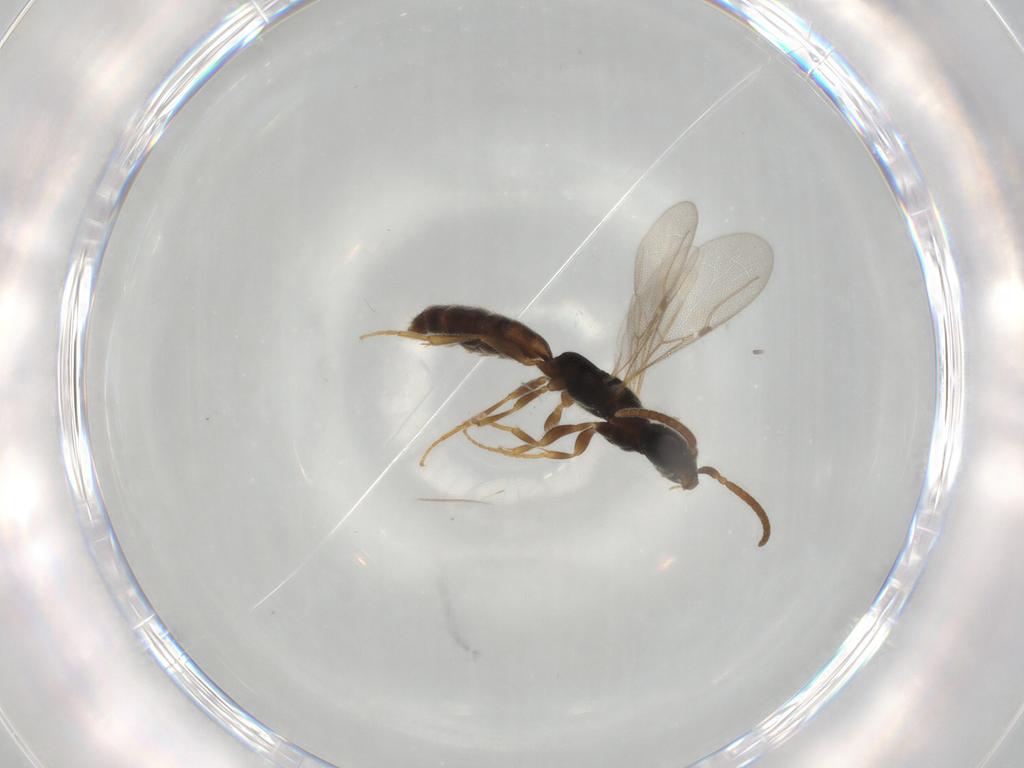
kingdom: Animalia
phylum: Arthropoda
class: Insecta
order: Hymenoptera
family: Bethylidae
